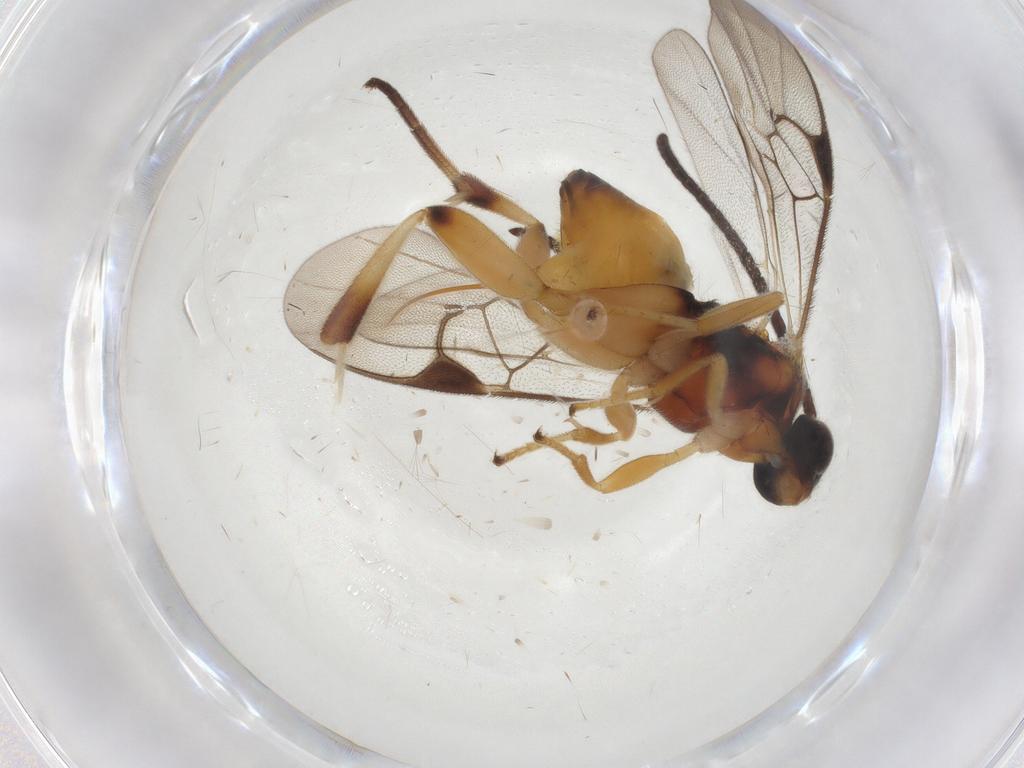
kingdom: Animalia
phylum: Arthropoda
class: Insecta
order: Hymenoptera
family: Braconidae
